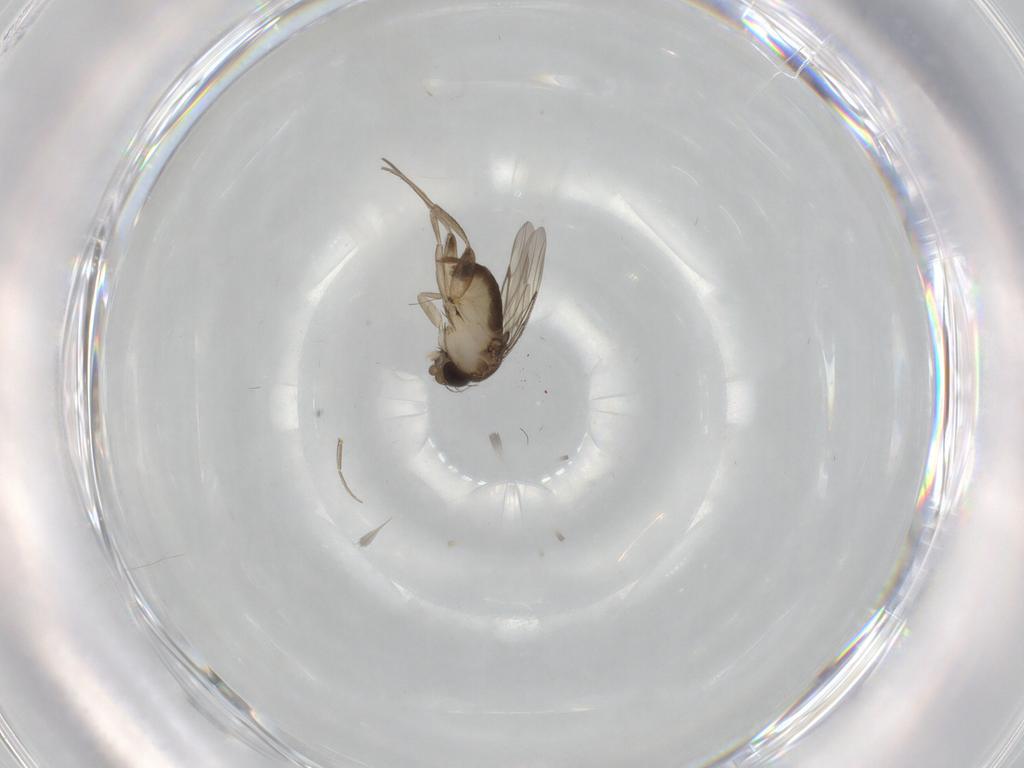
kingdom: Animalia
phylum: Arthropoda
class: Insecta
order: Diptera
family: Phoridae
